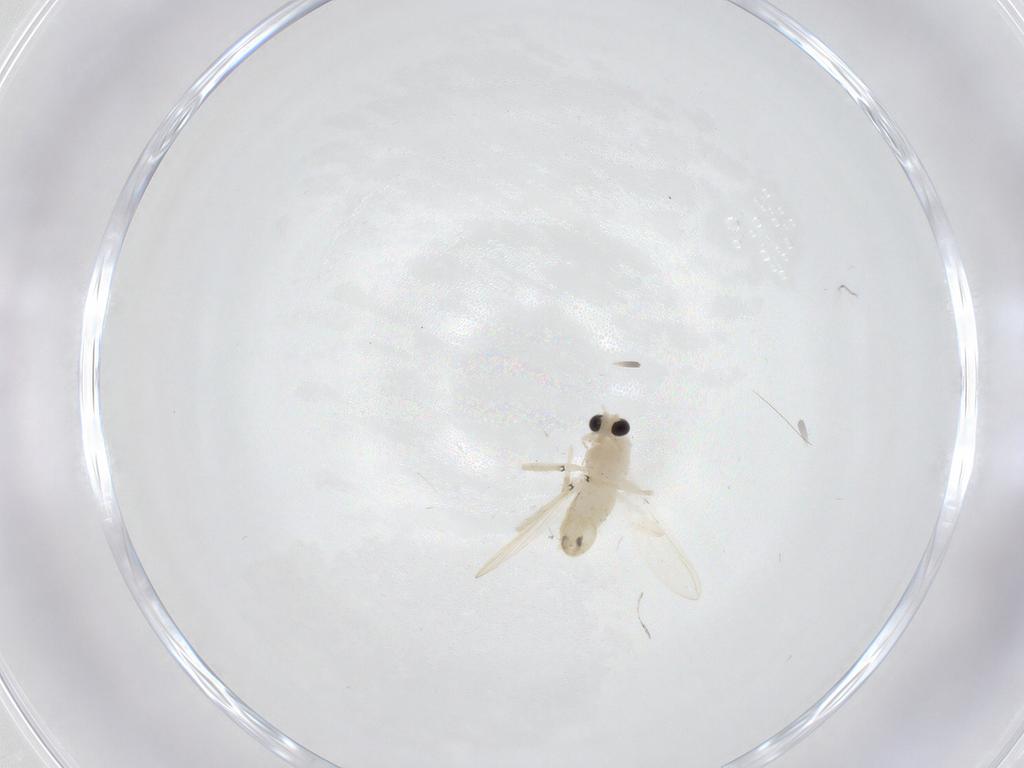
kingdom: Animalia
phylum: Arthropoda
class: Insecta
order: Diptera
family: Chironomidae
